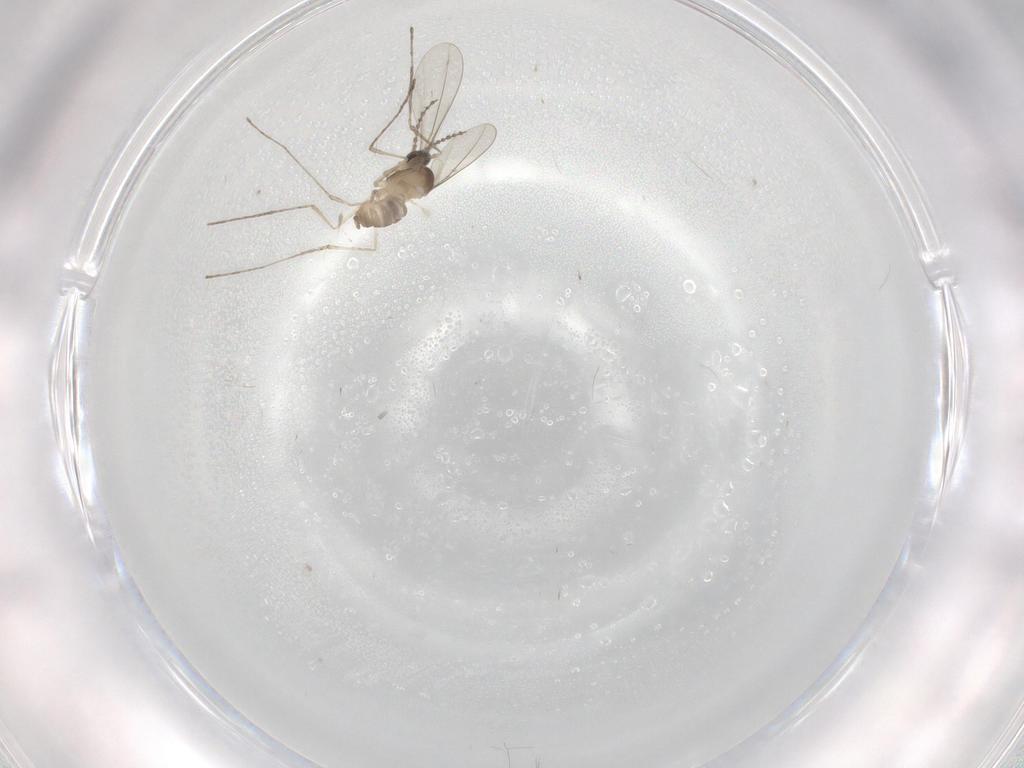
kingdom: Animalia
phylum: Arthropoda
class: Insecta
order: Diptera
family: Cecidomyiidae
